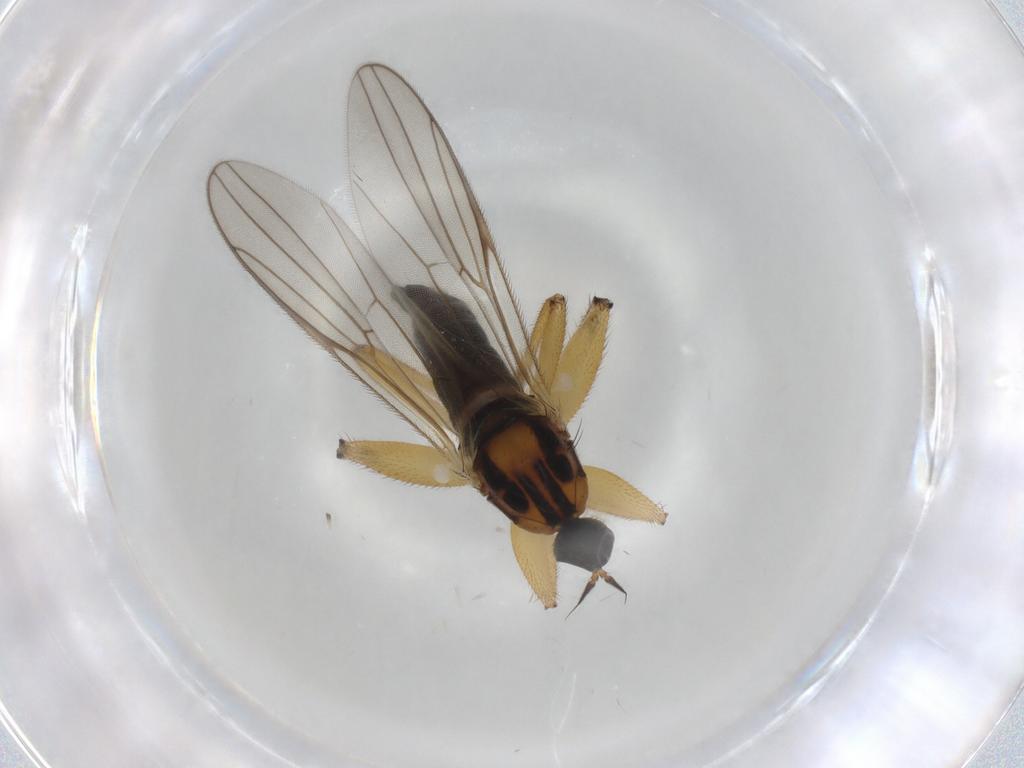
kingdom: Animalia
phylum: Arthropoda
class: Insecta
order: Diptera
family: Hybotidae
